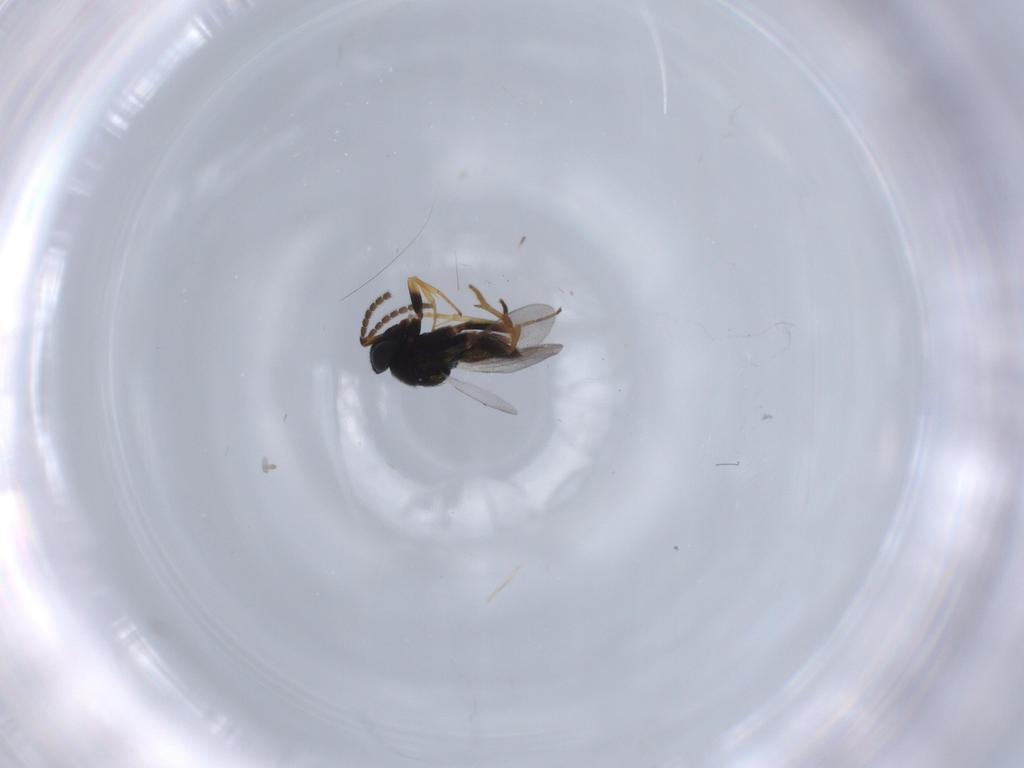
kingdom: Animalia
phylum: Arthropoda
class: Insecta
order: Hymenoptera
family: Encyrtidae
